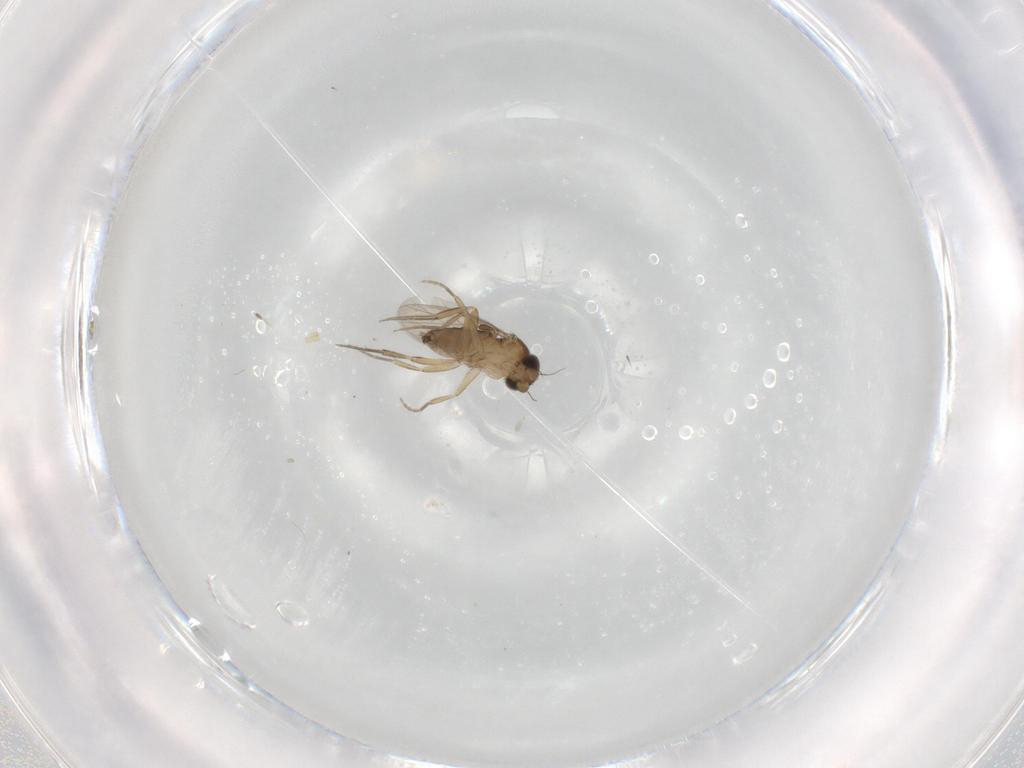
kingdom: Animalia
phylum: Arthropoda
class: Insecta
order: Diptera
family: Phoridae
